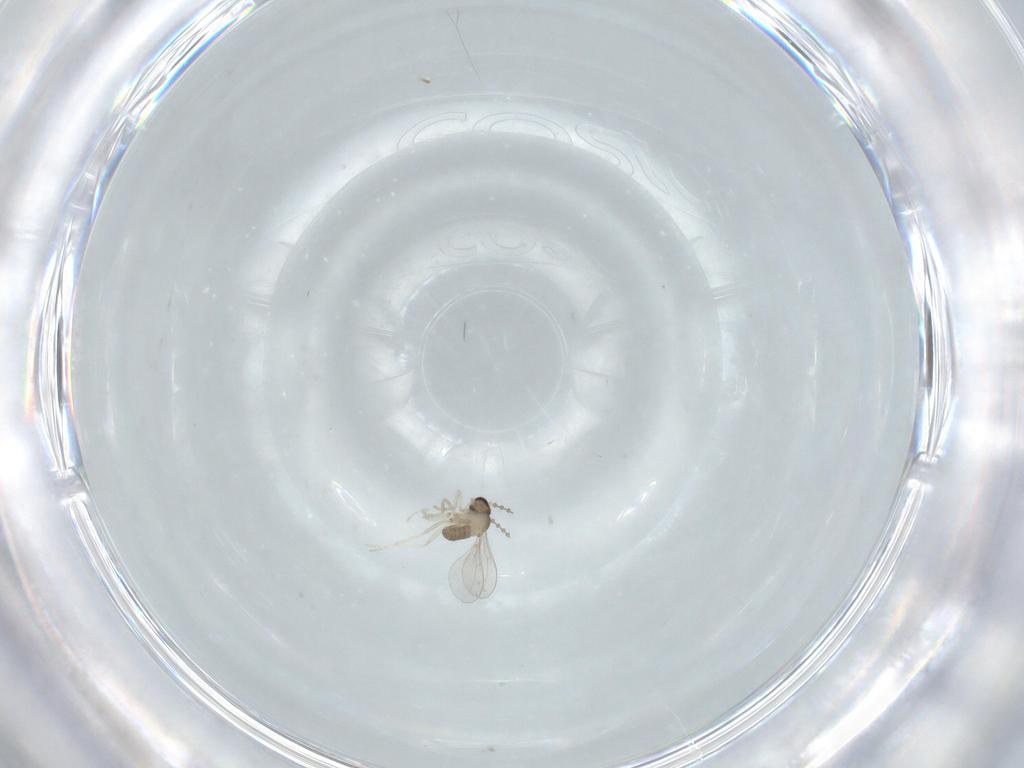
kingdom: Animalia
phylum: Arthropoda
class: Insecta
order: Diptera
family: Cecidomyiidae
